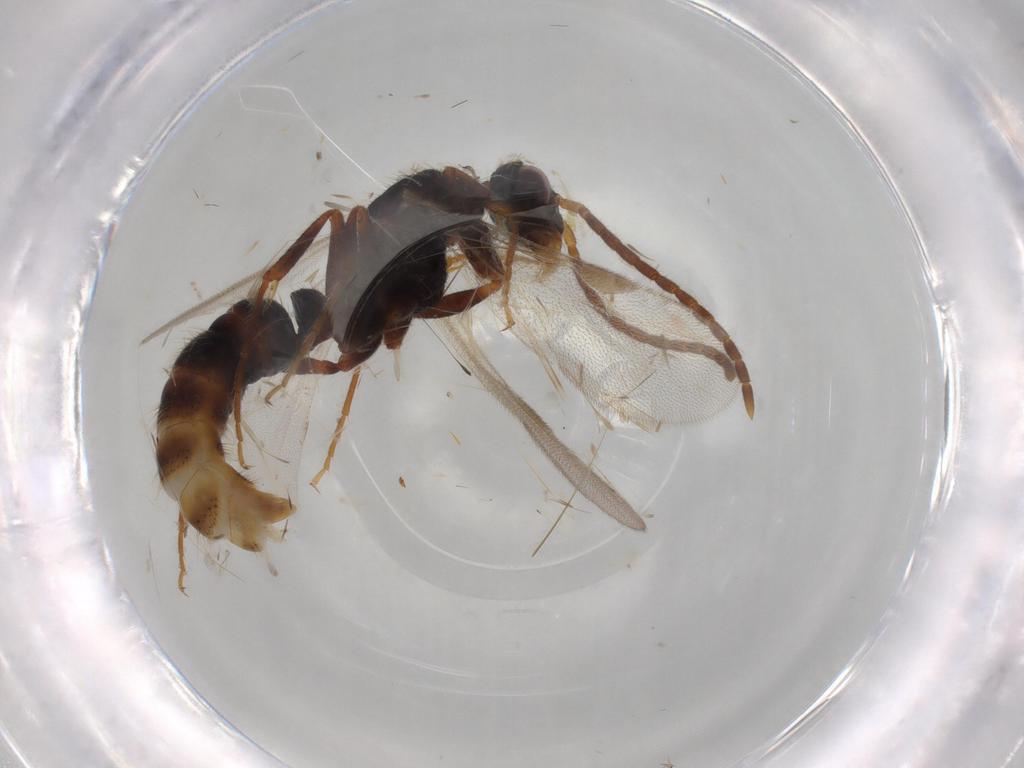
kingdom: Animalia
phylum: Arthropoda
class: Insecta
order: Hymenoptera
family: Formicidae
